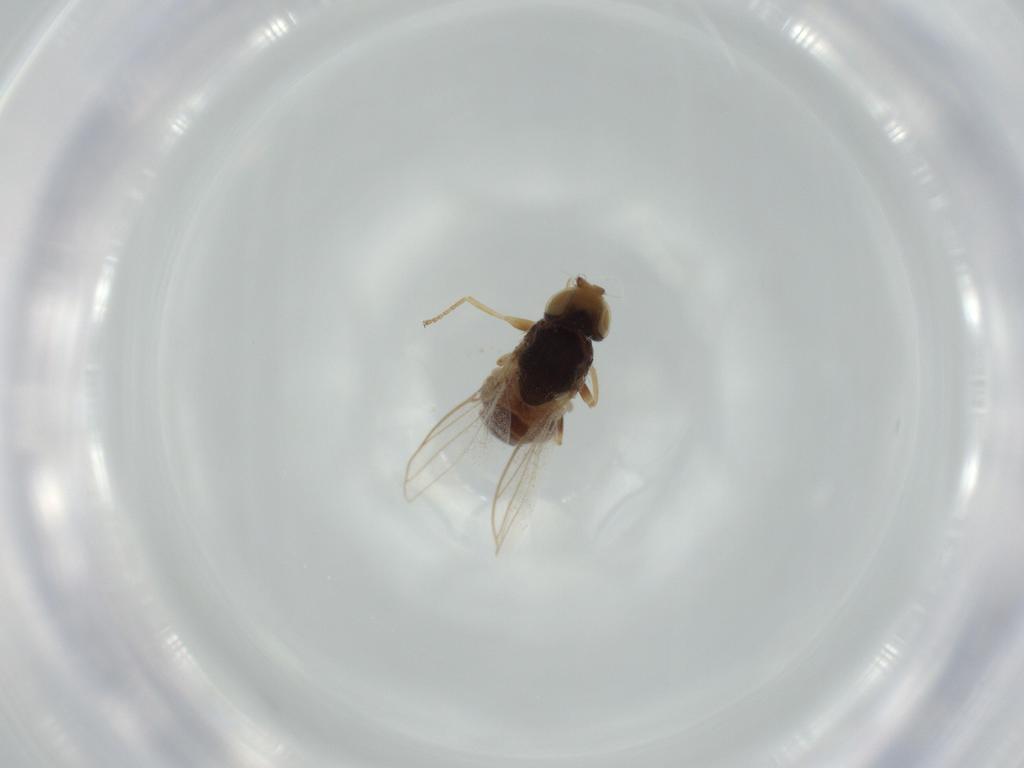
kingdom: Animalia
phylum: Arthropoda
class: Insecta
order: Diptera
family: Chloropidae
